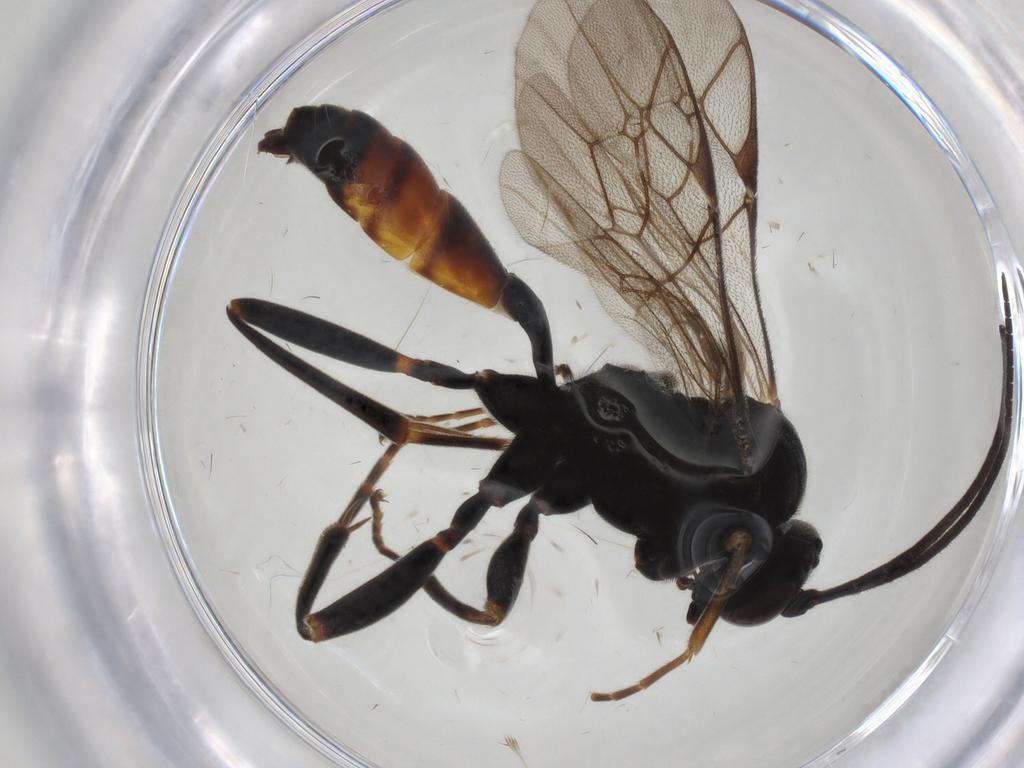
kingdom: Animalia
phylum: Arthropoda
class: Insecta
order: Hymenoptera
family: Ichneumonidae
